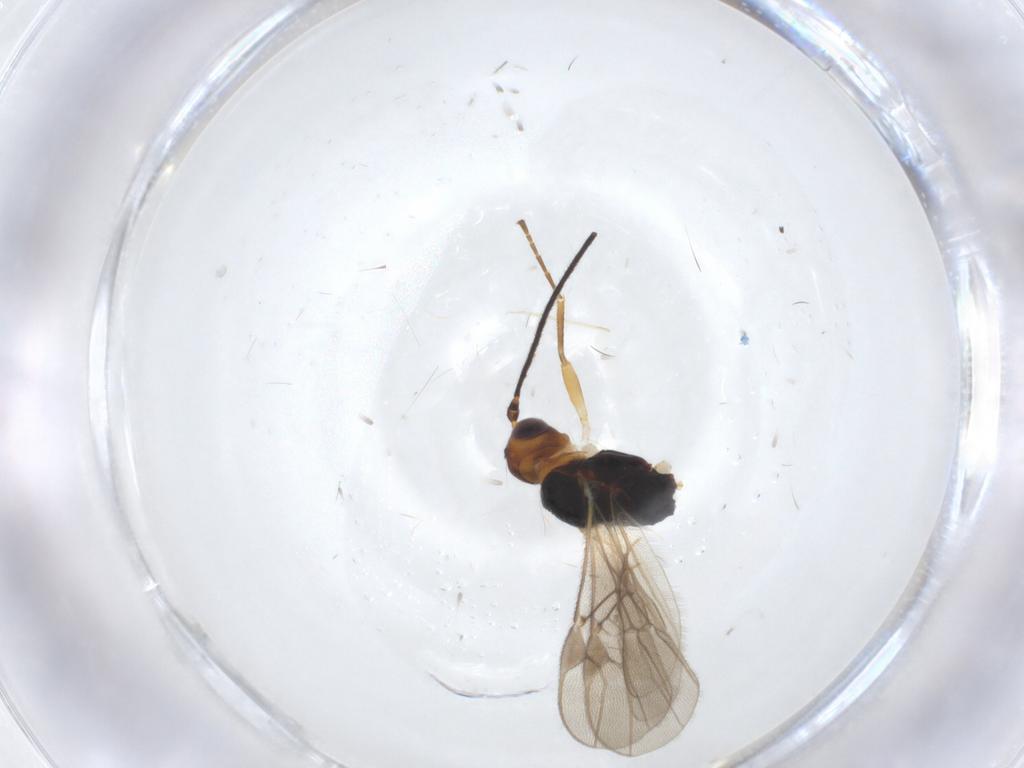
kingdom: Animalia
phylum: Arthropoda
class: Insecta
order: Hymenoptera
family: Braconidae
